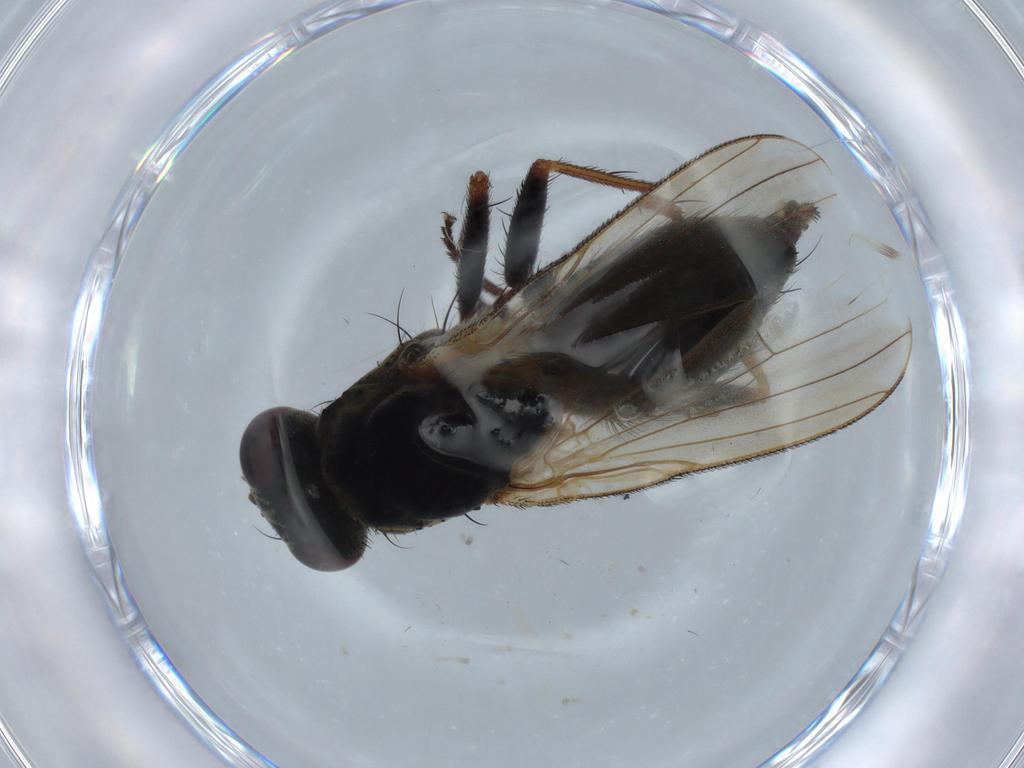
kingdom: Animalia
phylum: Arthropoda
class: Insecta
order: Diptera
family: Muscidae
